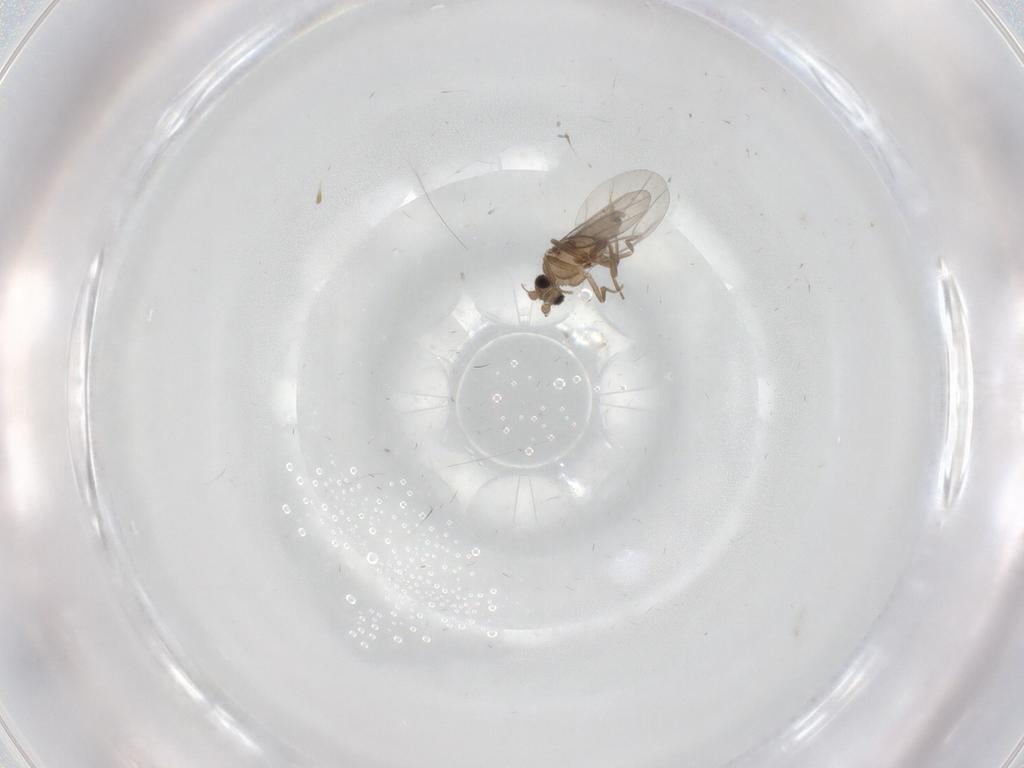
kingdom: Animalia
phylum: Arthropoda
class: Insecta
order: Diptera
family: Cecidomyiidae
